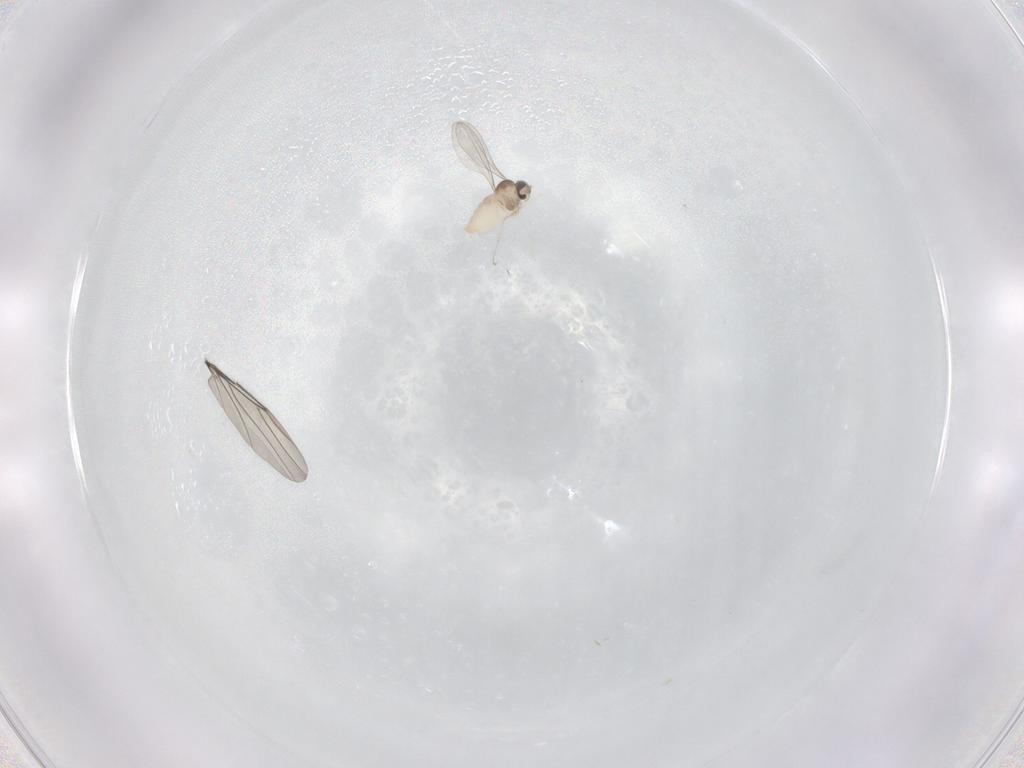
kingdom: Animalia
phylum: Arthropoda
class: Insecta
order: Diptera
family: Cecidomyiidae
